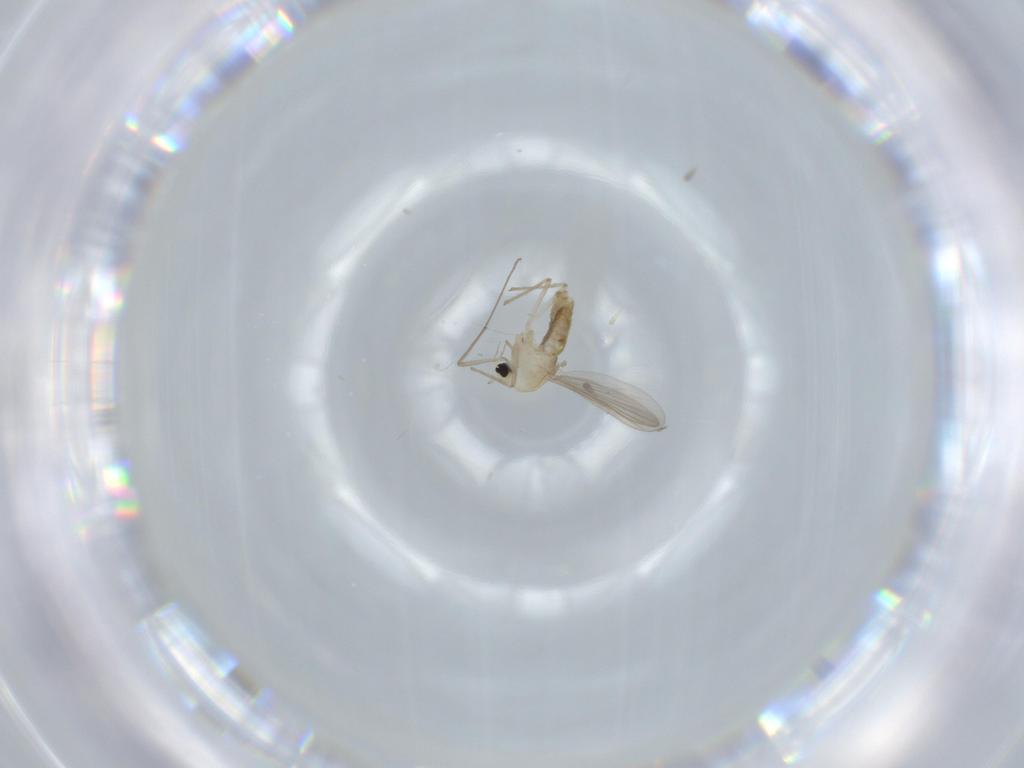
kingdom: Animalia
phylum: Arthropoda
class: Insecta
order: Diptera
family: Chironomidae
